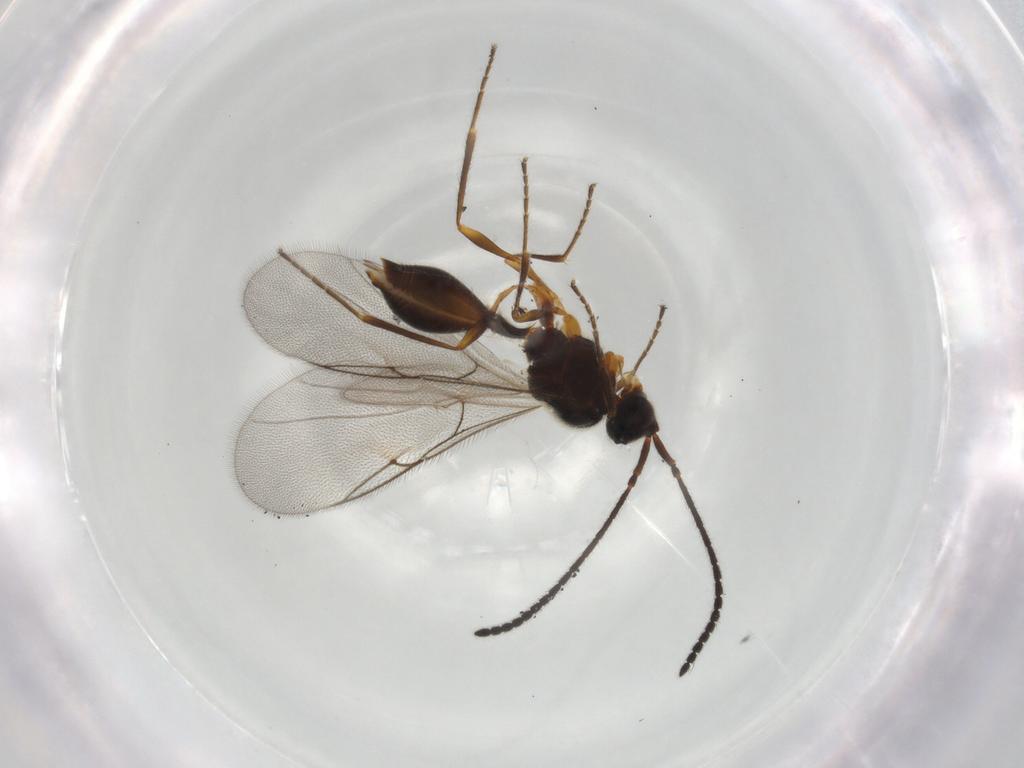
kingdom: Animalia
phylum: Arthropoda
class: Insecta
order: Hymenoptera
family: Diapriidae
